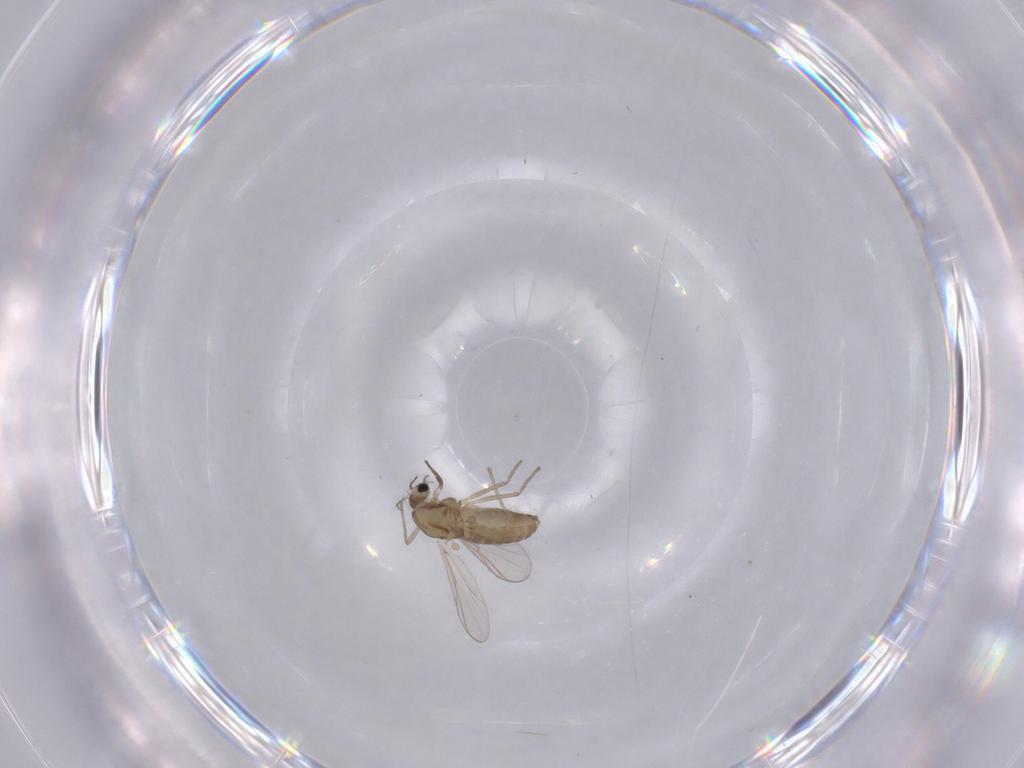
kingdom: Animalia
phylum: Arthropoda
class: Insecta
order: Diptera
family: Chironomidae
